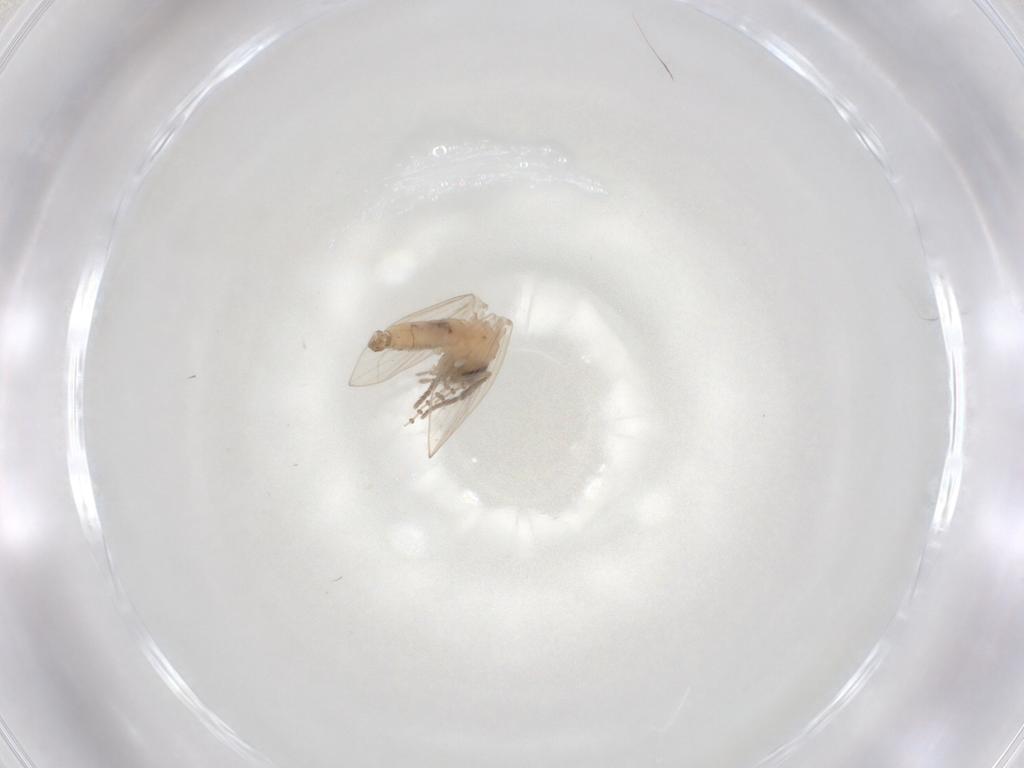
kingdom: Animalia
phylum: Arthropoda
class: Insecta
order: Diptera
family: Psychodidae
